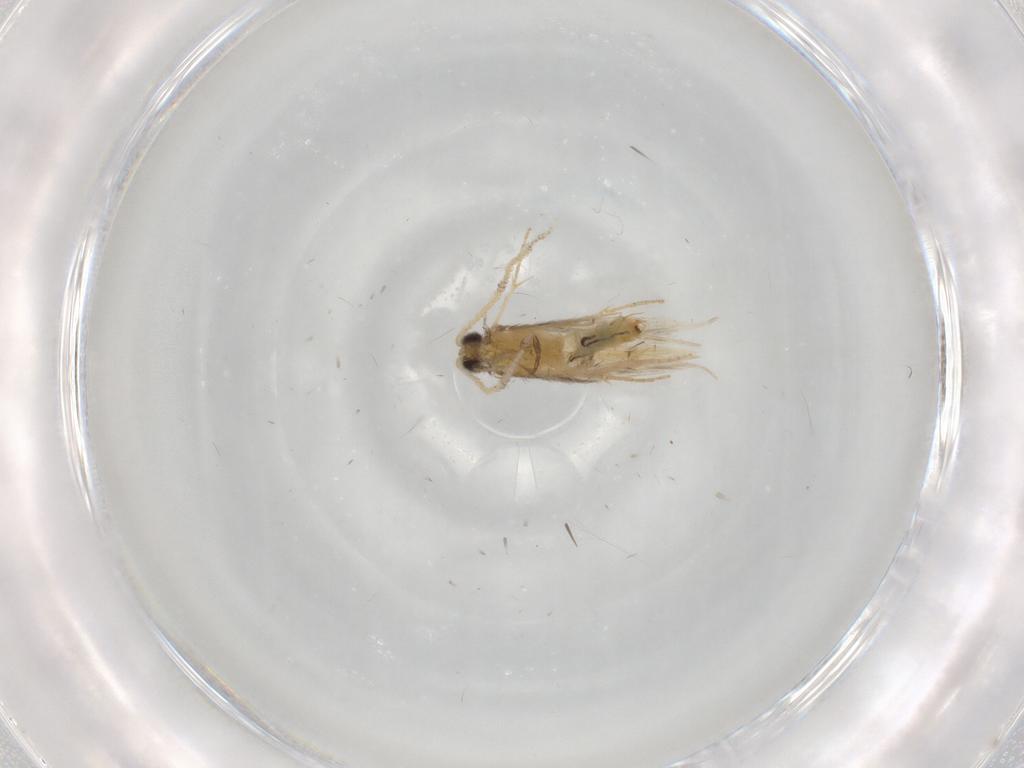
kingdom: Animalia
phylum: Arthropoda
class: Insecta
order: Trichoptera
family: Hydroptilidae
